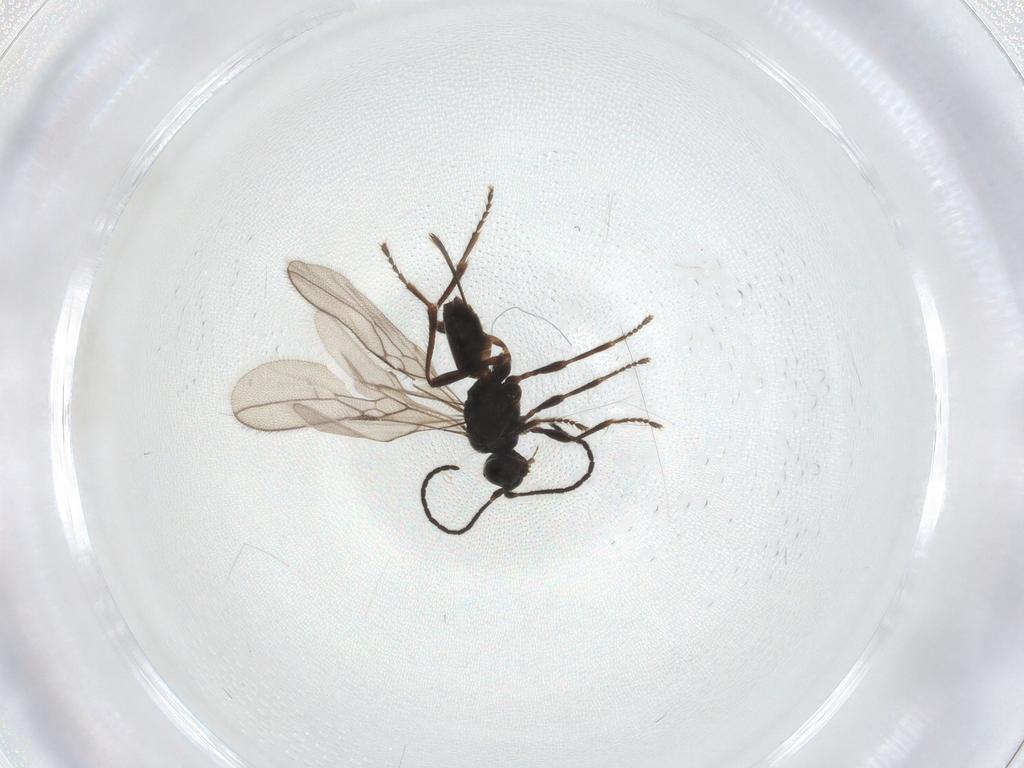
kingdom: Animalia
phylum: Arthropoda
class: Insecta
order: Hymenoptera
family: Braconidae
